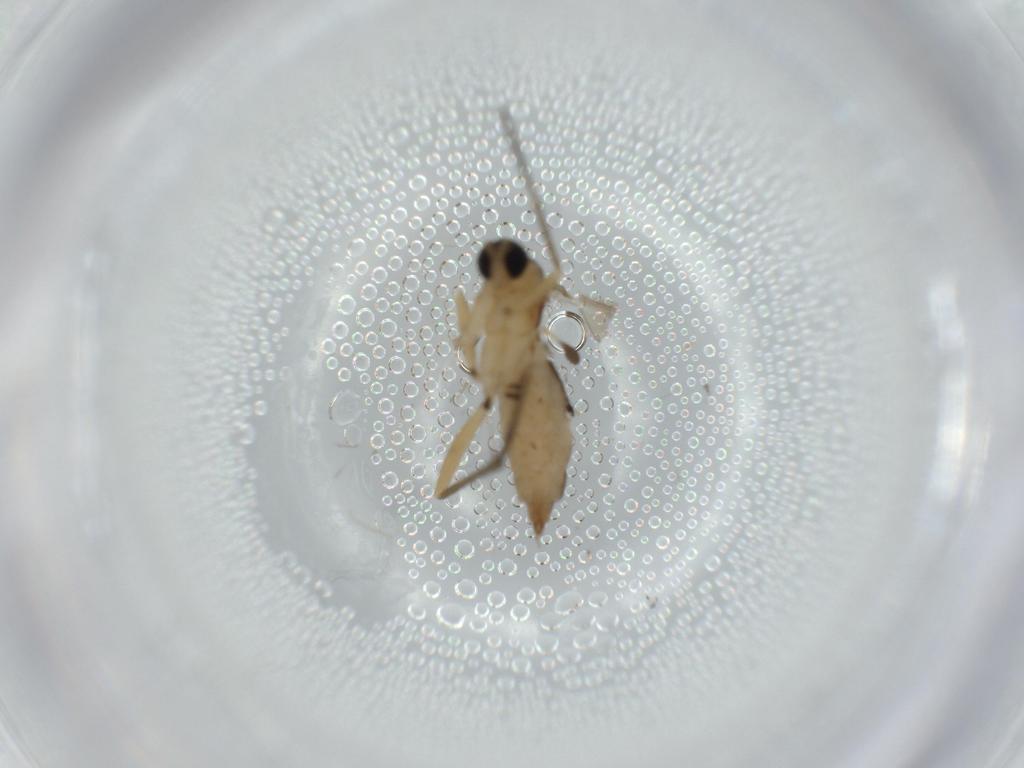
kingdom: Animalia
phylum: Arthropoda
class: Insecta
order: Diptera
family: Sciaridae
